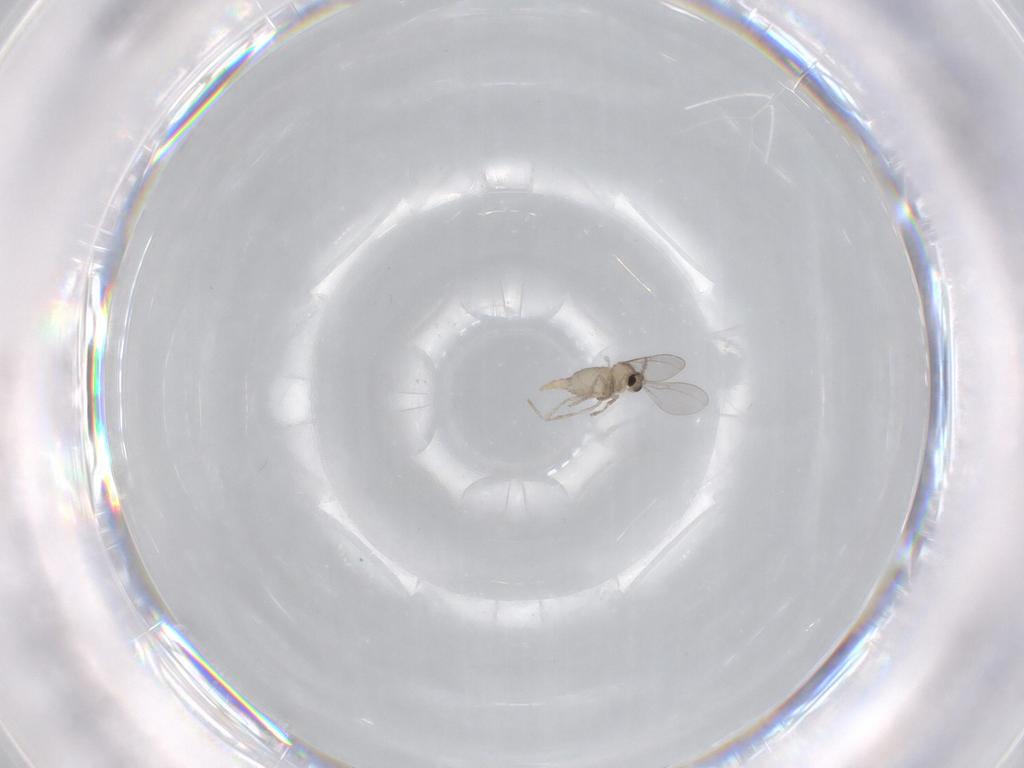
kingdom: Animalia
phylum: Arthropoda
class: Insecta
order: Diptera
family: Cecidomyiidae
